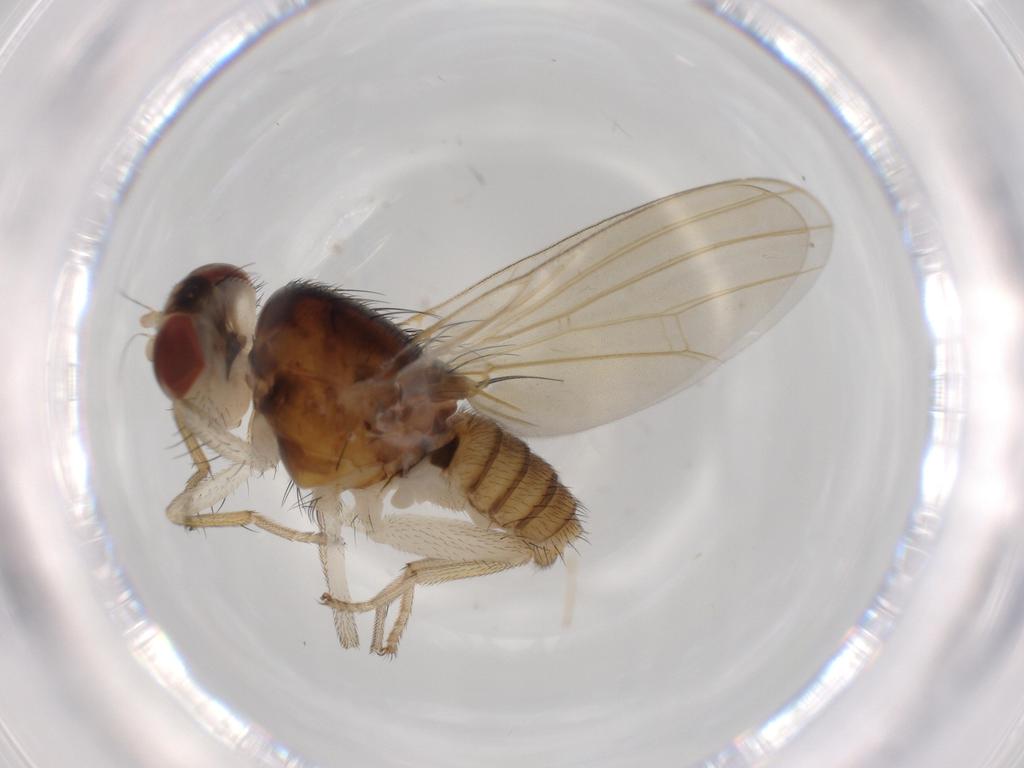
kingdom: Animalia
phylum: Arthropoda
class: Insecta
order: Diptera
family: Lauxaniidae
